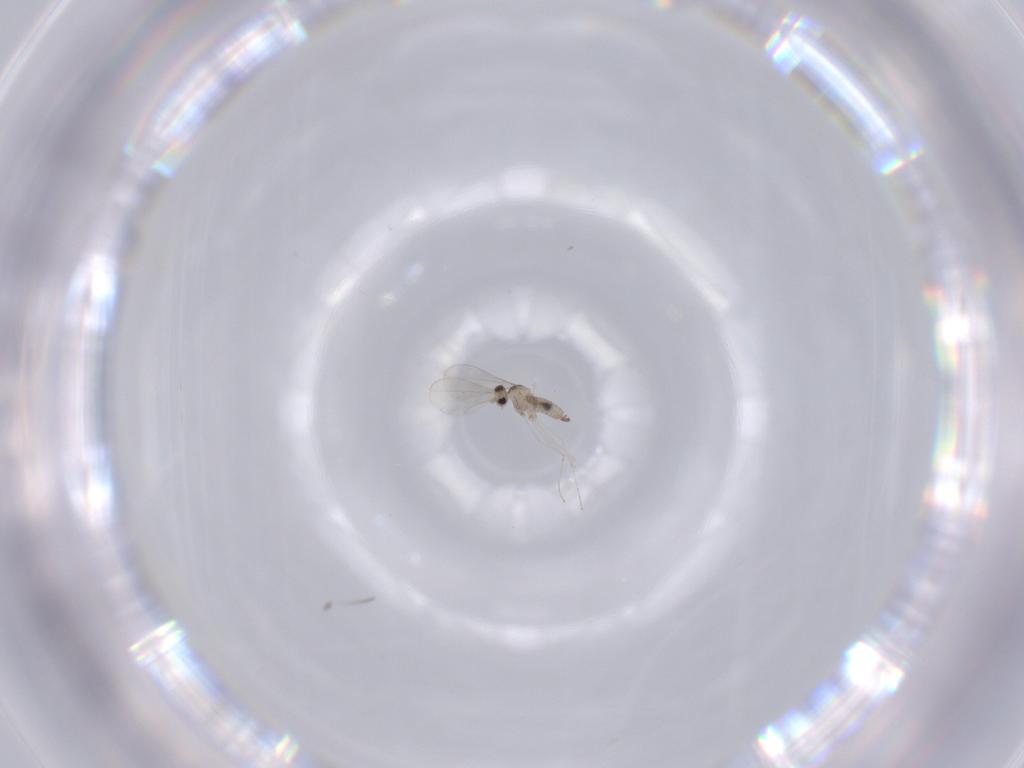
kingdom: Animalia
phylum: Arthropoda
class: Insecta
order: Diptera
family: Cecidomyiidae
